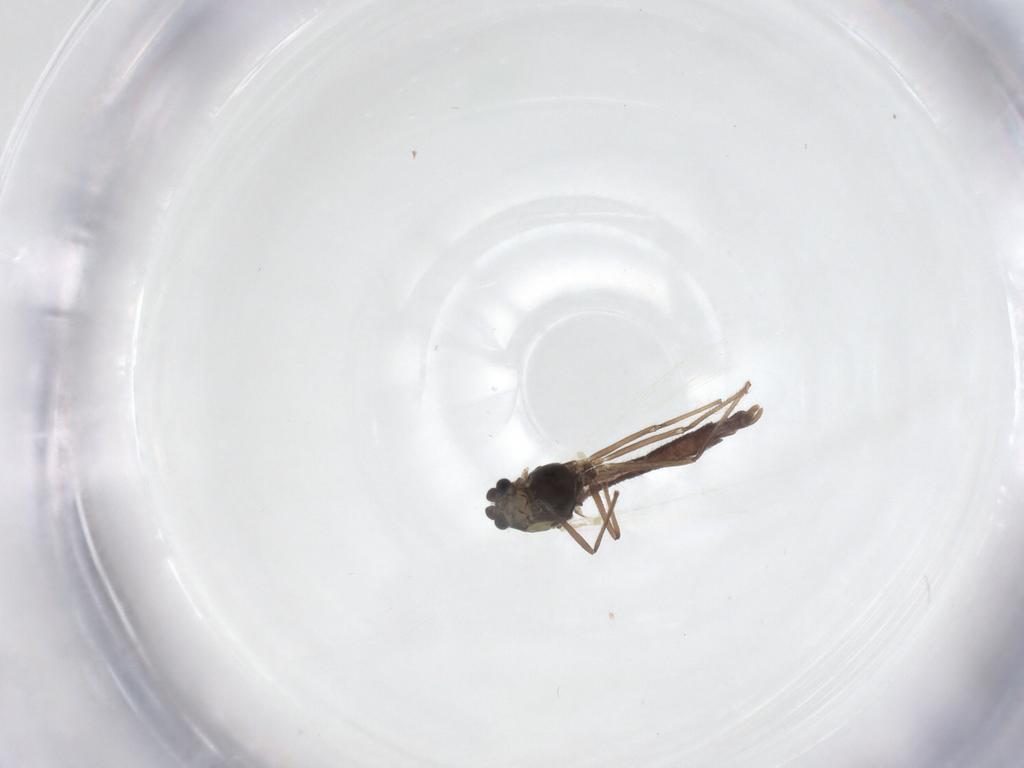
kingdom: Animalia
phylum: Arthropoda
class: Insecta
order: Diptera
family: Chironomidae
